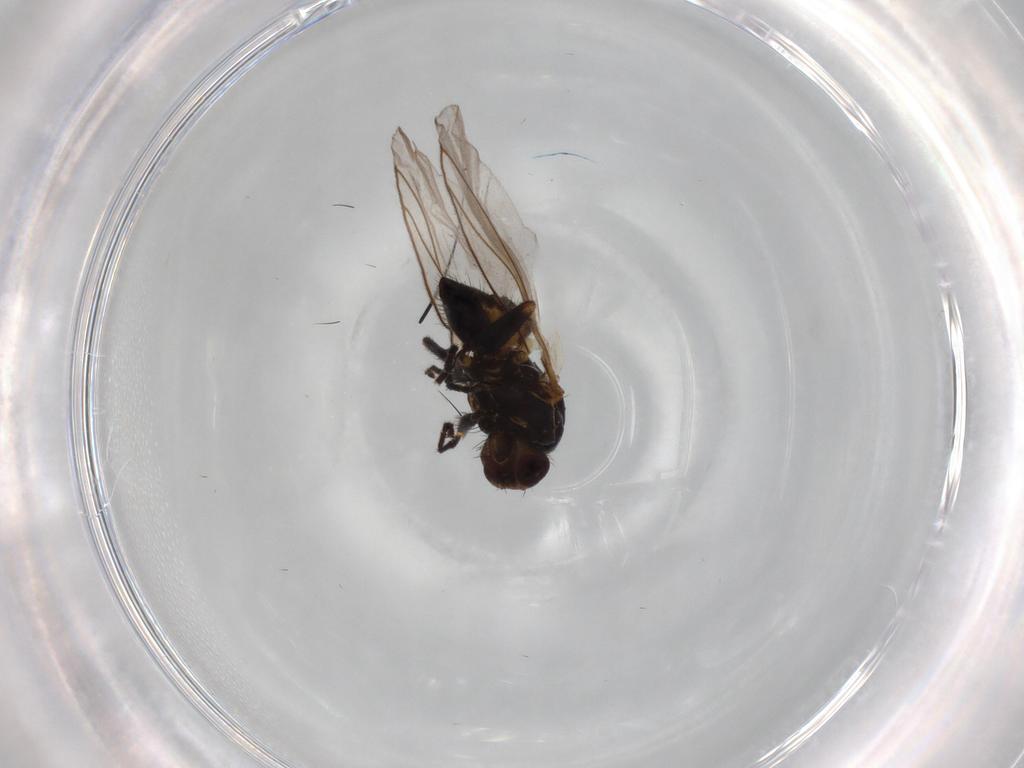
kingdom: Animalia
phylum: Arthropoda
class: Insecta
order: Diptera
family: Agromyzidae
